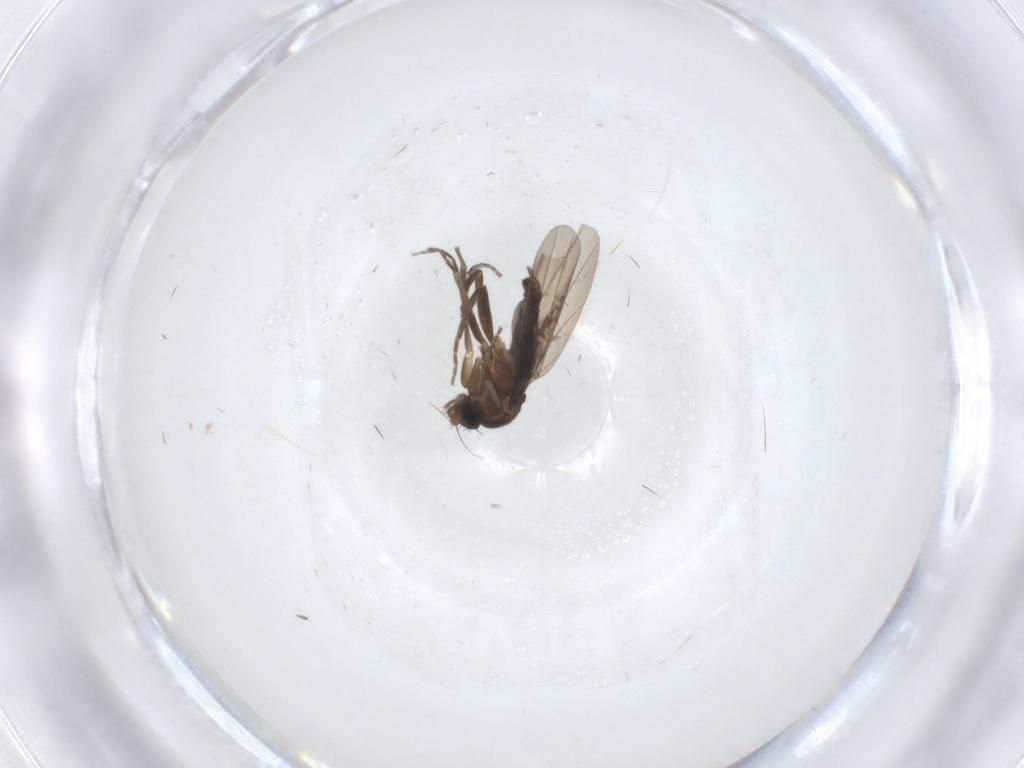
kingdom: Animalia
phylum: Arthropoda
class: Insecta
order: Diptera
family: Phoridae
